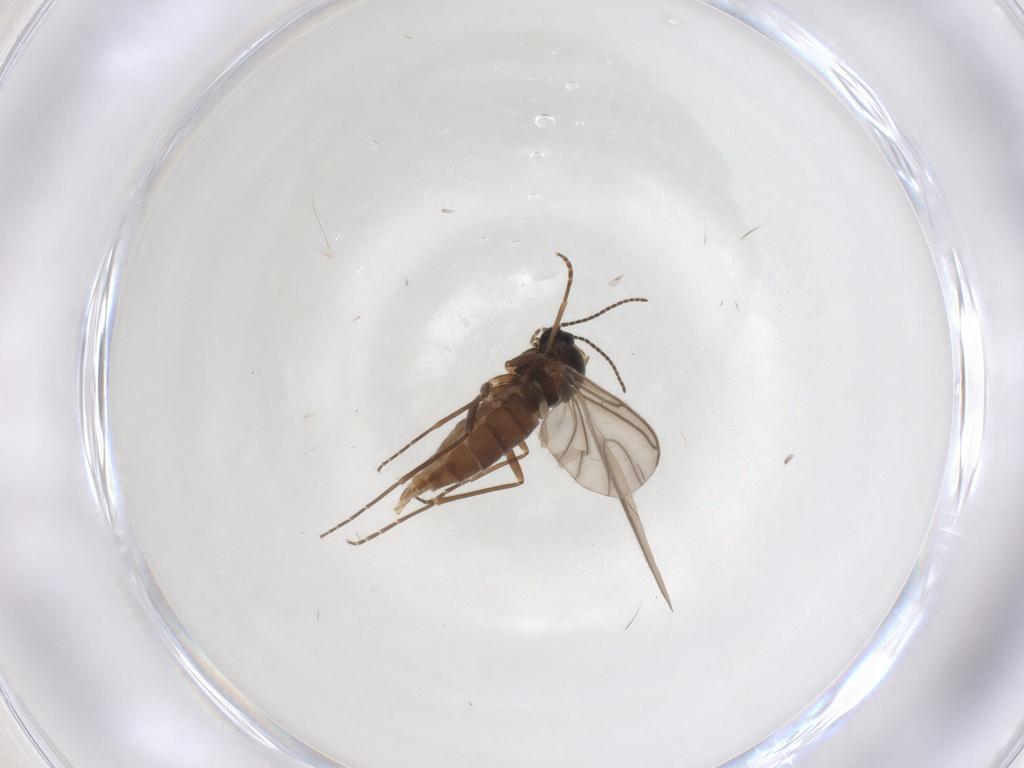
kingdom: Animalia
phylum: Arthropoda
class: Insecta
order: Diptera
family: Sciaridae
